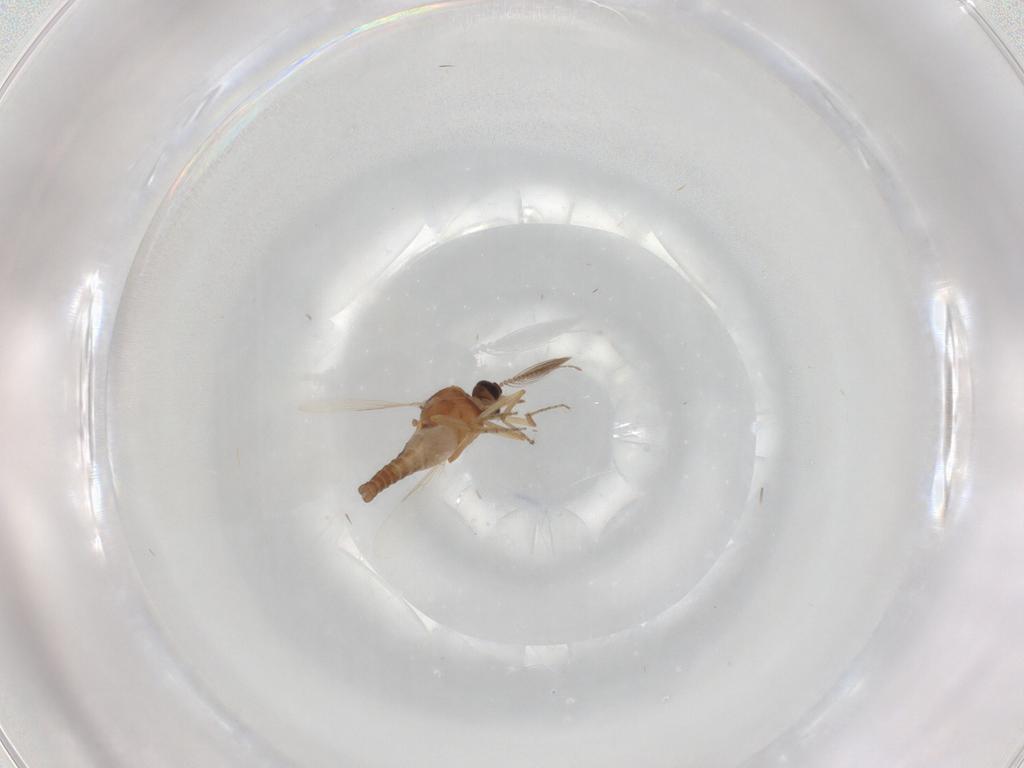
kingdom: Animalia
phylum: Arthropoda
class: Insecta
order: Diptera
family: Ceratopogonidae
